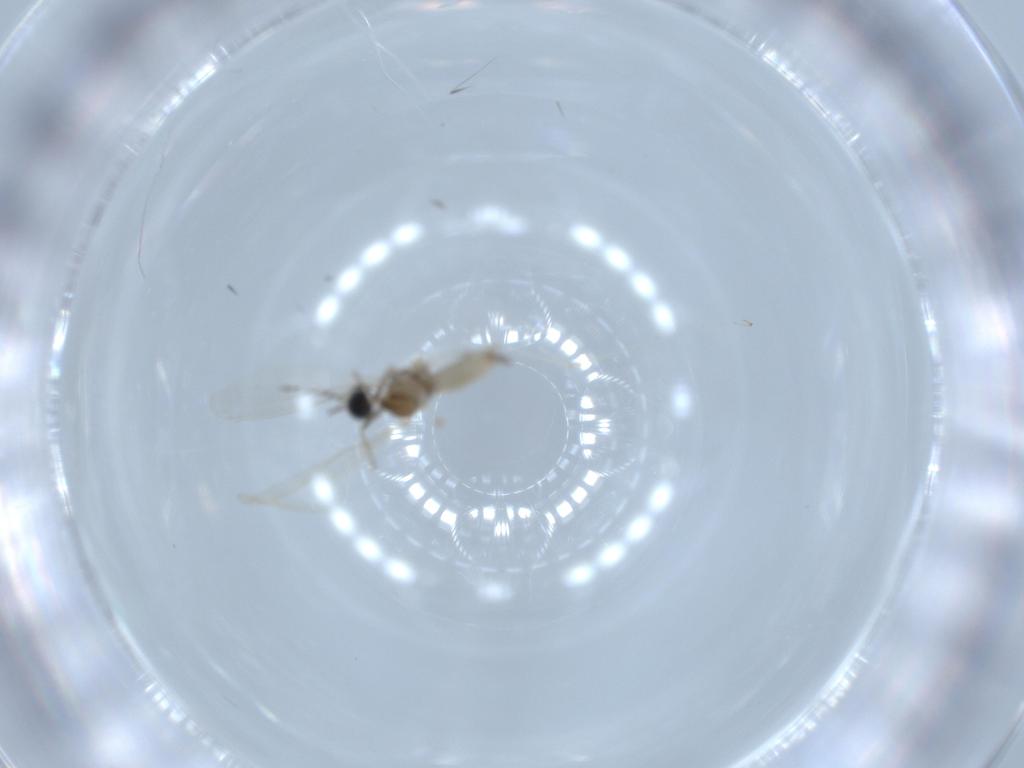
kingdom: Animalia
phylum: Arthropoda
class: Insecta
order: Diptera
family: Cecidomyiidae
